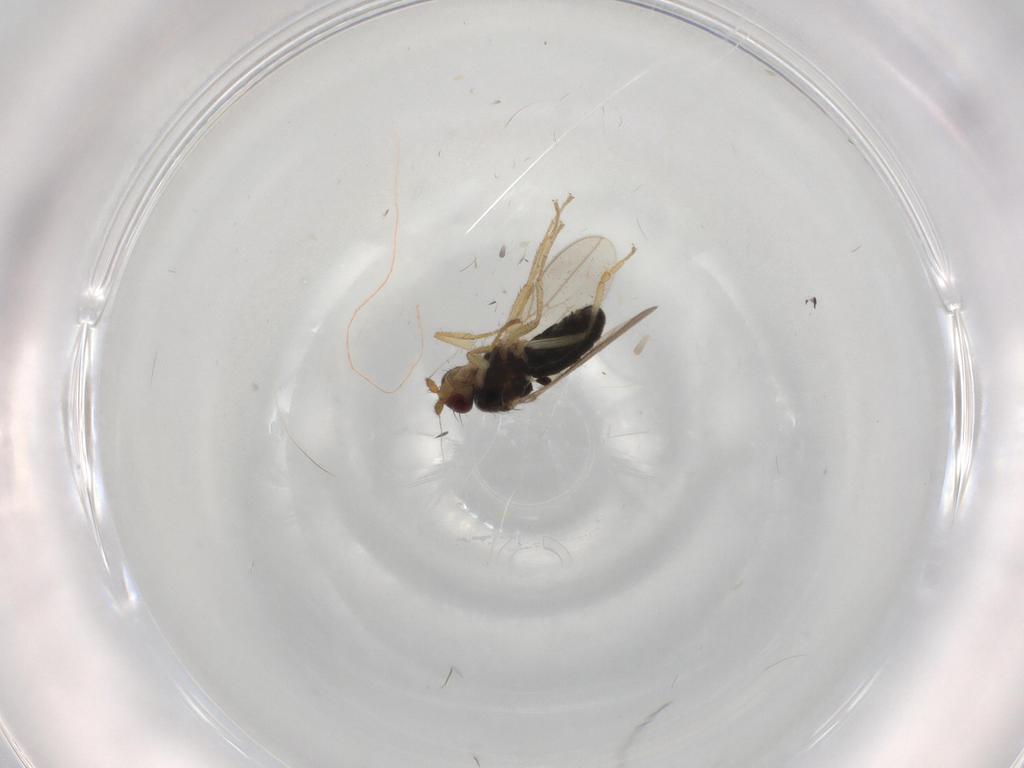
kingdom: Animalia
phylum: Arthropoda
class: Insecta
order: Diptera
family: Sphaeroceridae
